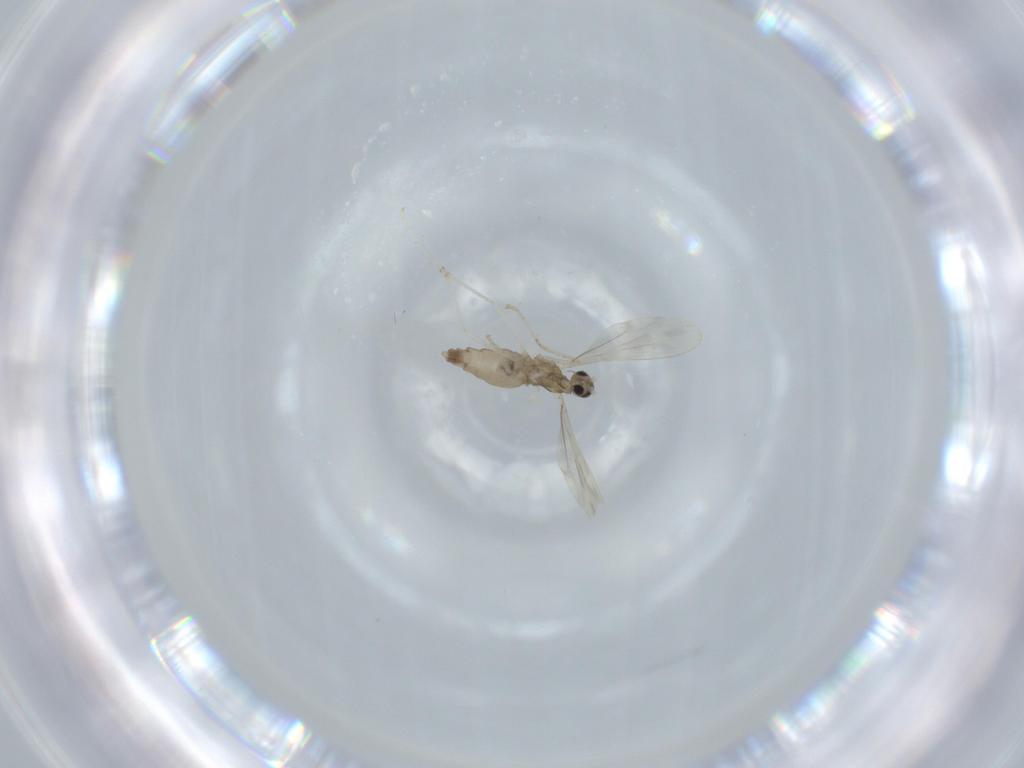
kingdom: Animalia
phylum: Arthropoda
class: Insecta
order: Diptera
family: Cecidomyiidae
